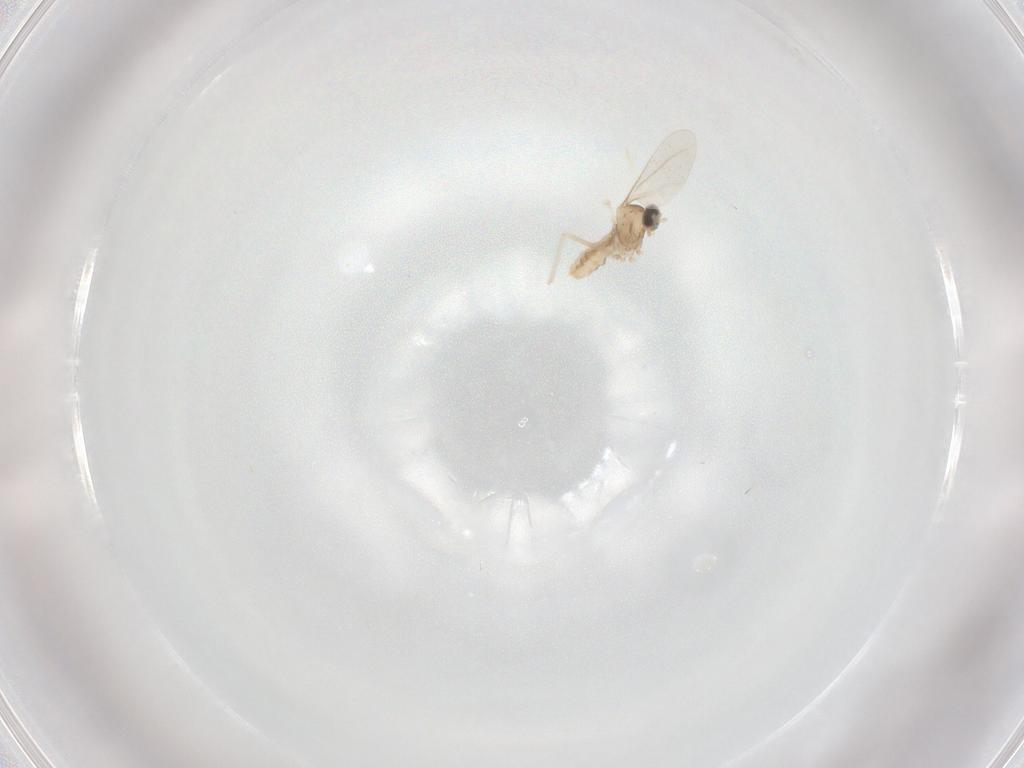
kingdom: Animalia
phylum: Arthropoda
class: Insecta
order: Diptera
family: Cecidomyiidae
